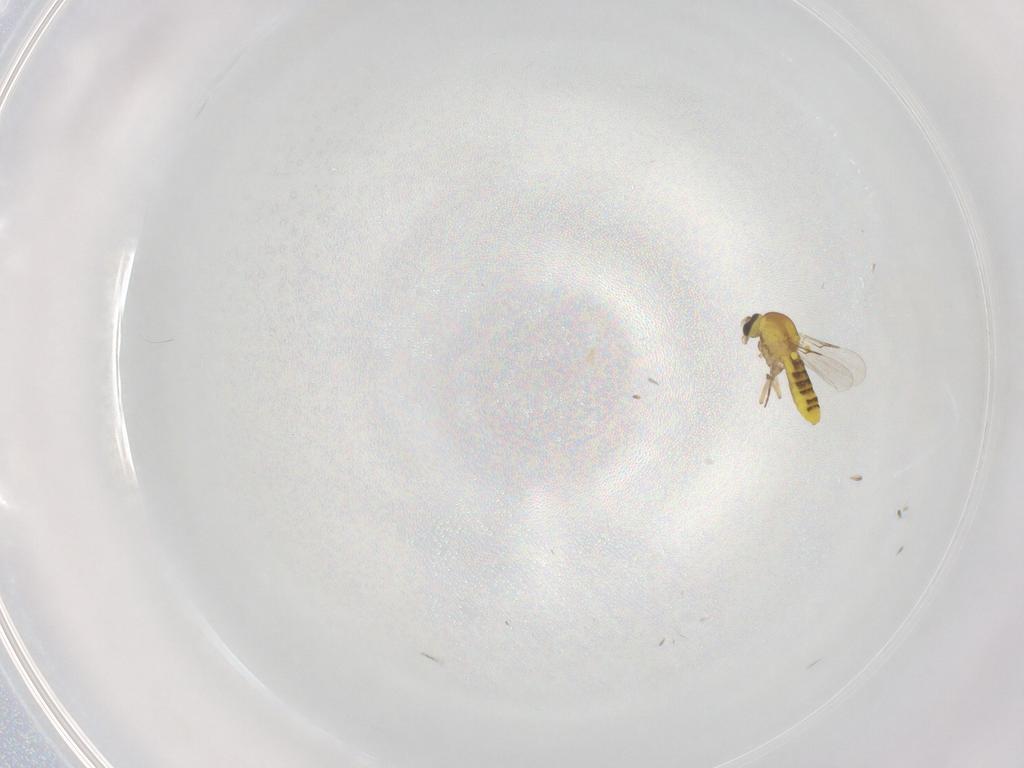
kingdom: Animalia
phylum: Arthropoda
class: Insecta
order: Diptera
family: Ceratopogonidae
